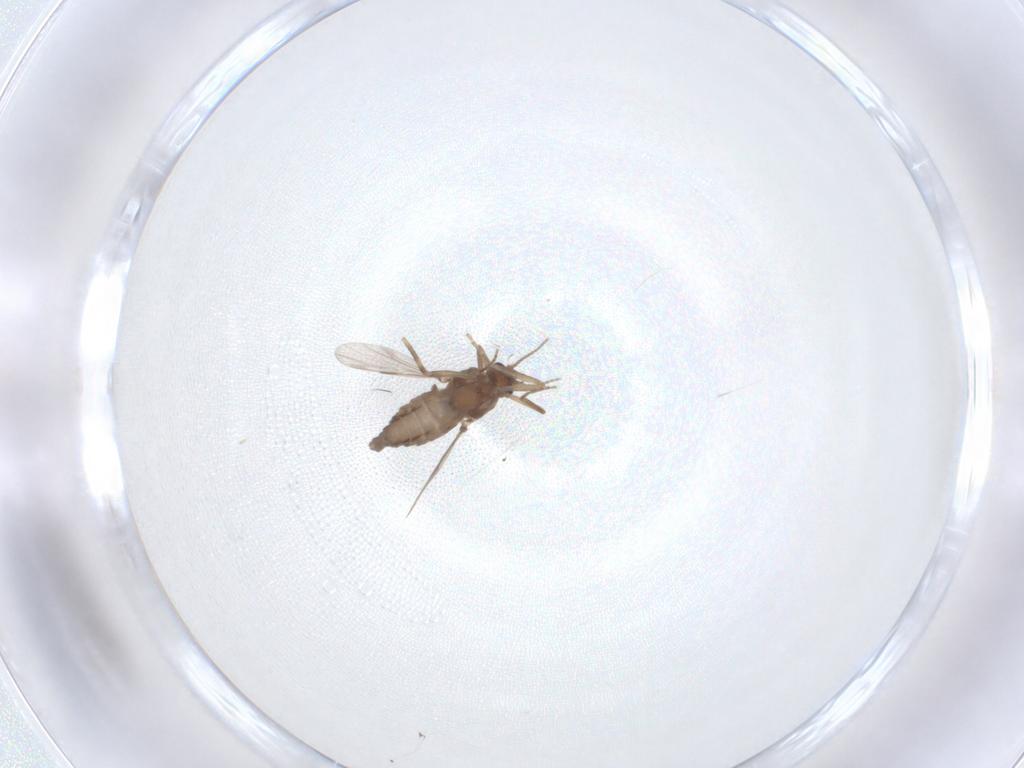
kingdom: Animalia
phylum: Arthropoda
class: Insecta
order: Diptera
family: Ceratopogonidae
